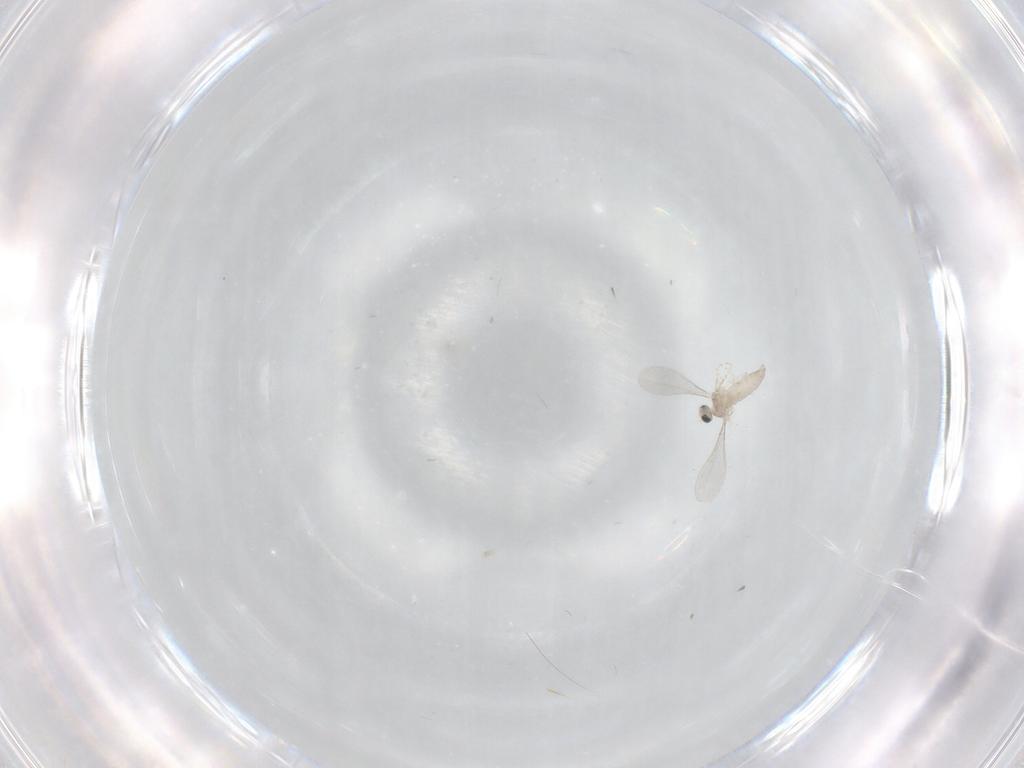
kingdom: Animalia
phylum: Arthropoda
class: Insecta
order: Diptera
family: Cecidomyiidae
